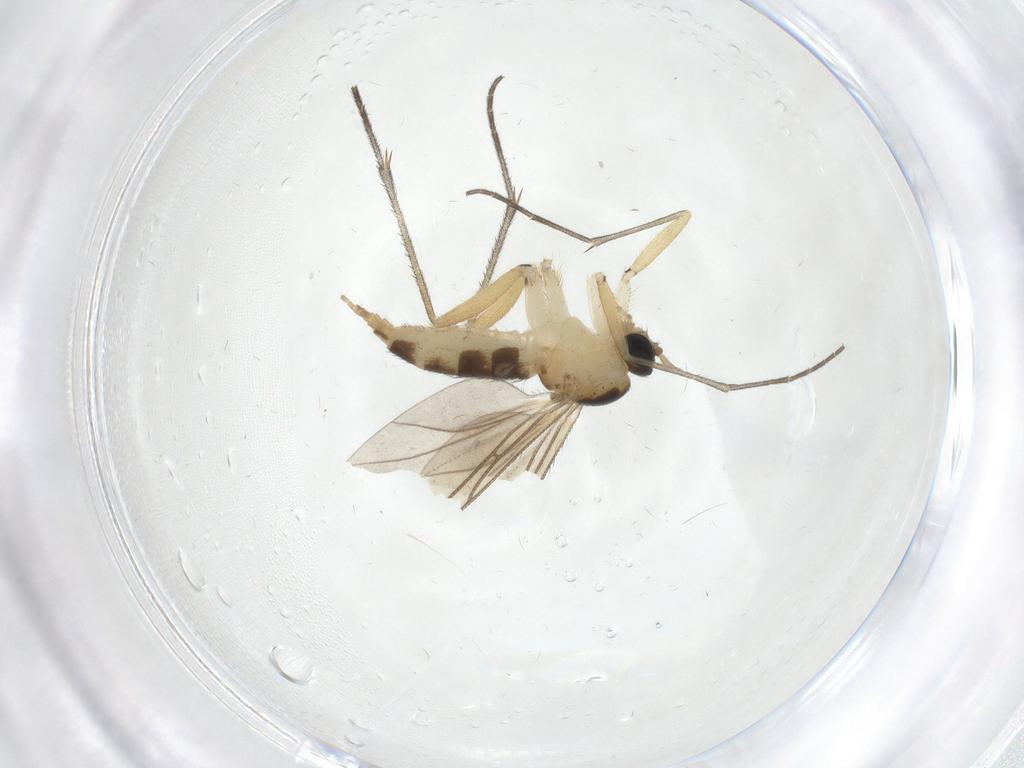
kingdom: Animalia
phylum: Arthropoda
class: Insecta
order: Diptera
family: Sciaridae
